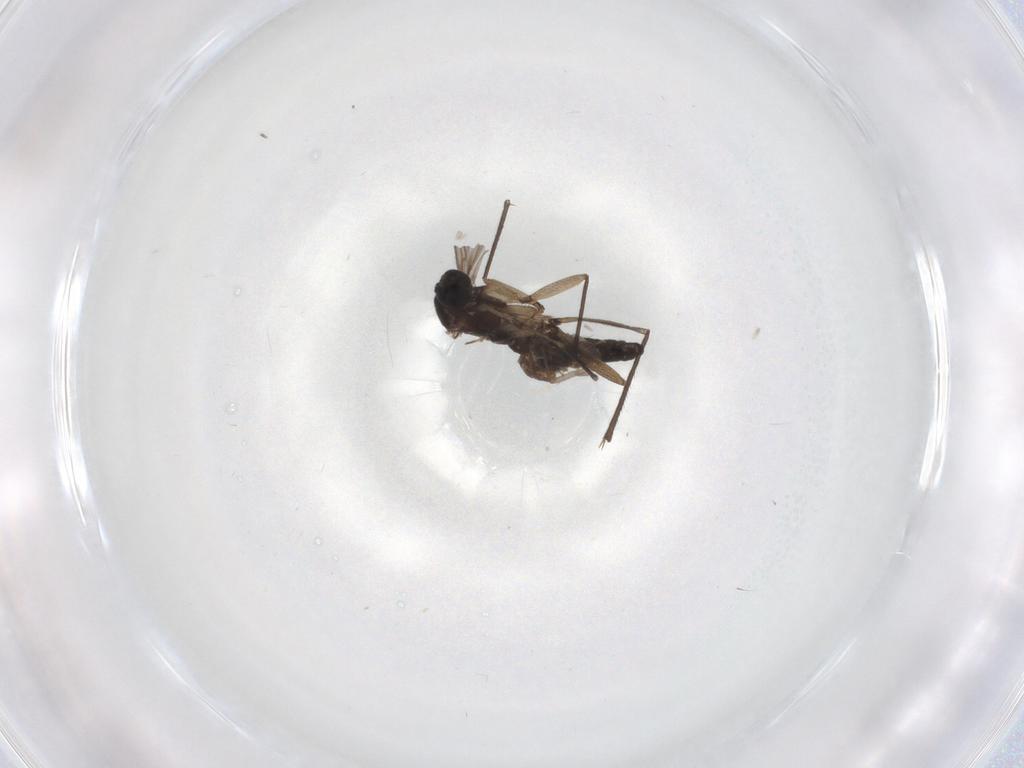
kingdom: Animalia
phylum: Arthropoda
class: Insecta
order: Diptera
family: Sciaridae
